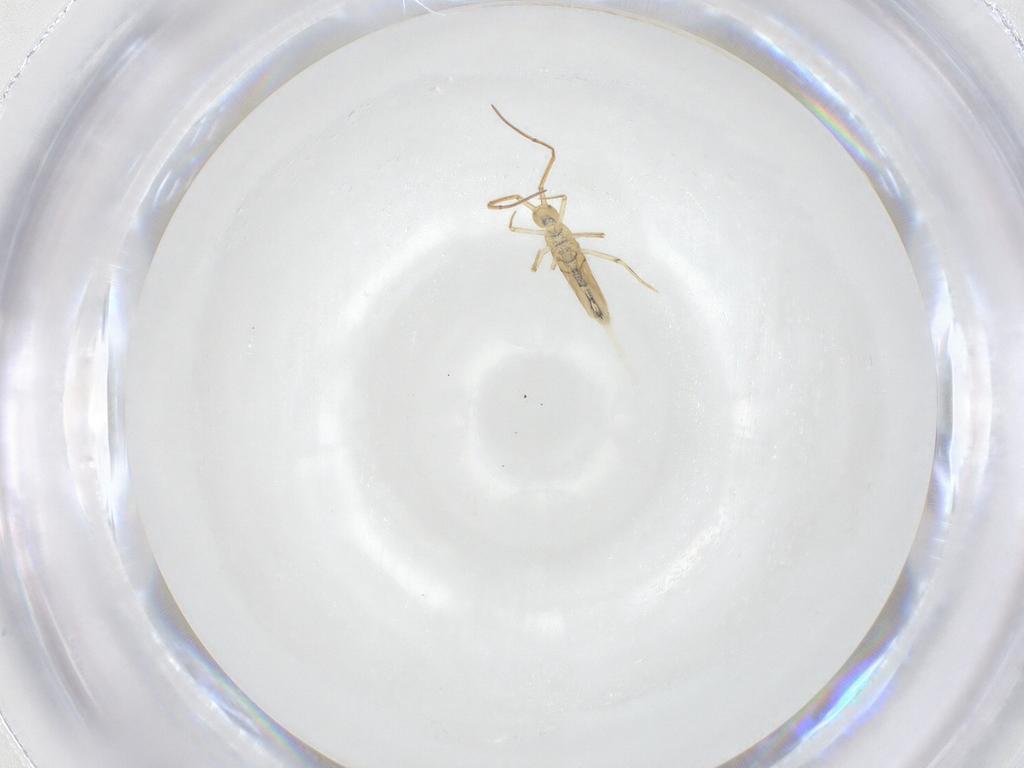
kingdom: Animalia
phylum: Arthropoda
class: Collembola
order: Entomobryomorpha
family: Entomobryidae
